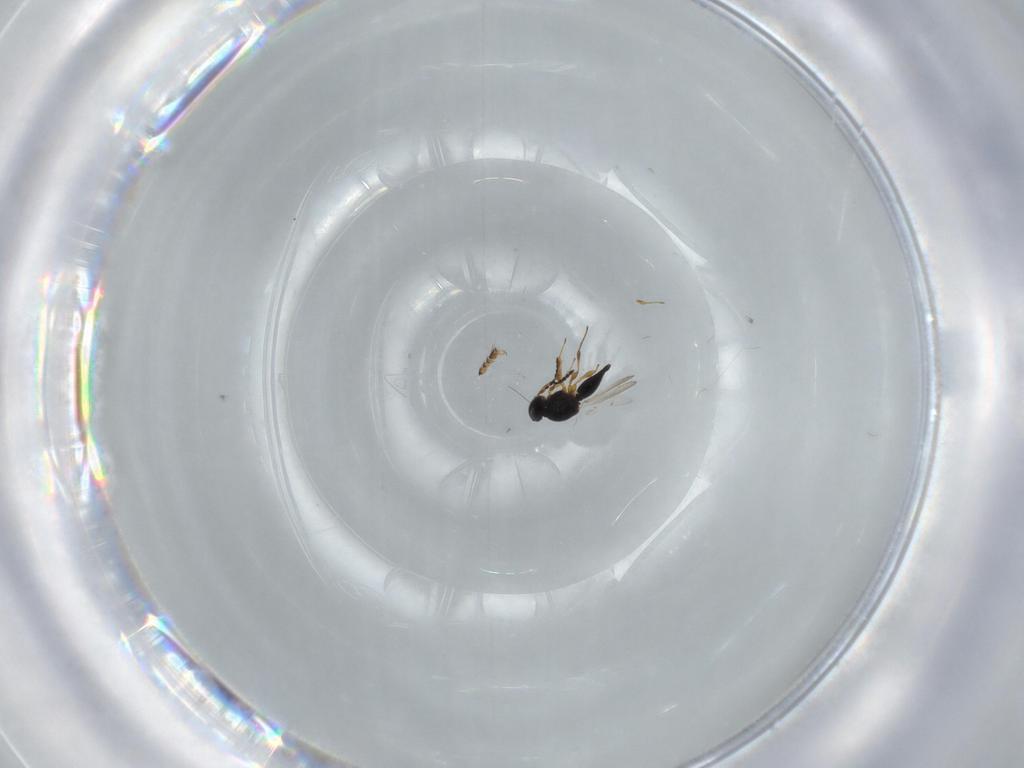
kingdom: Animalia
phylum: Arthropoda
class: Insecta
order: Hymenoptera
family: Platygastridae
